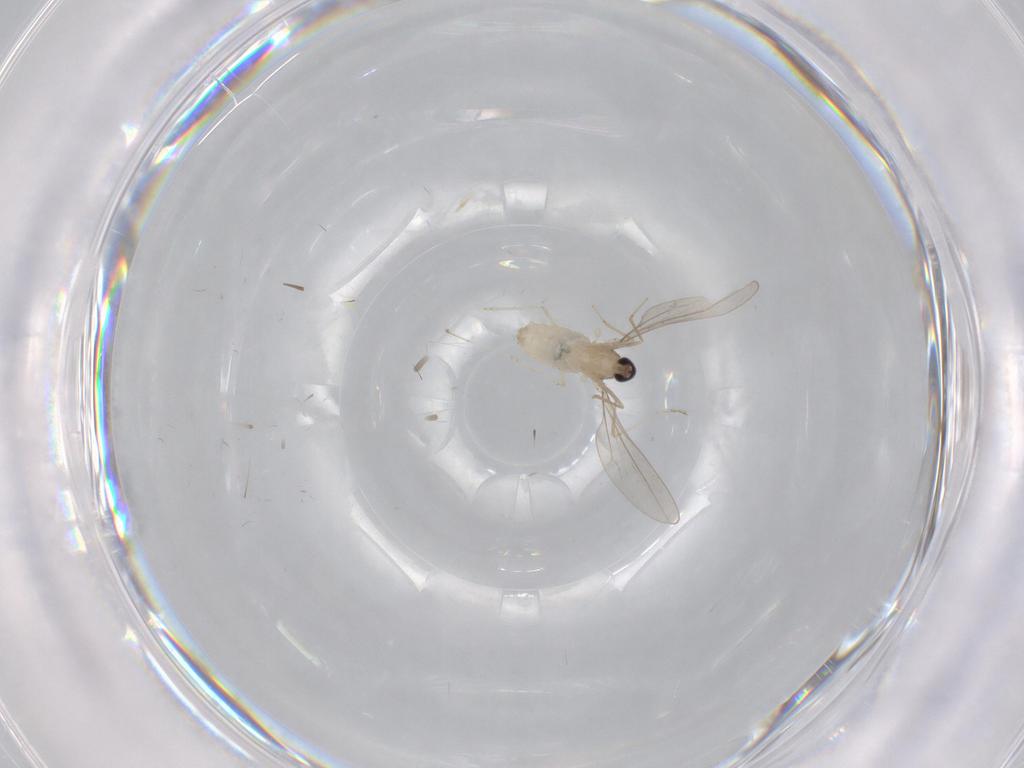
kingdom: Animalia
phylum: Arthropoda
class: Insecta
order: Diptera
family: Cecidomyiidae
